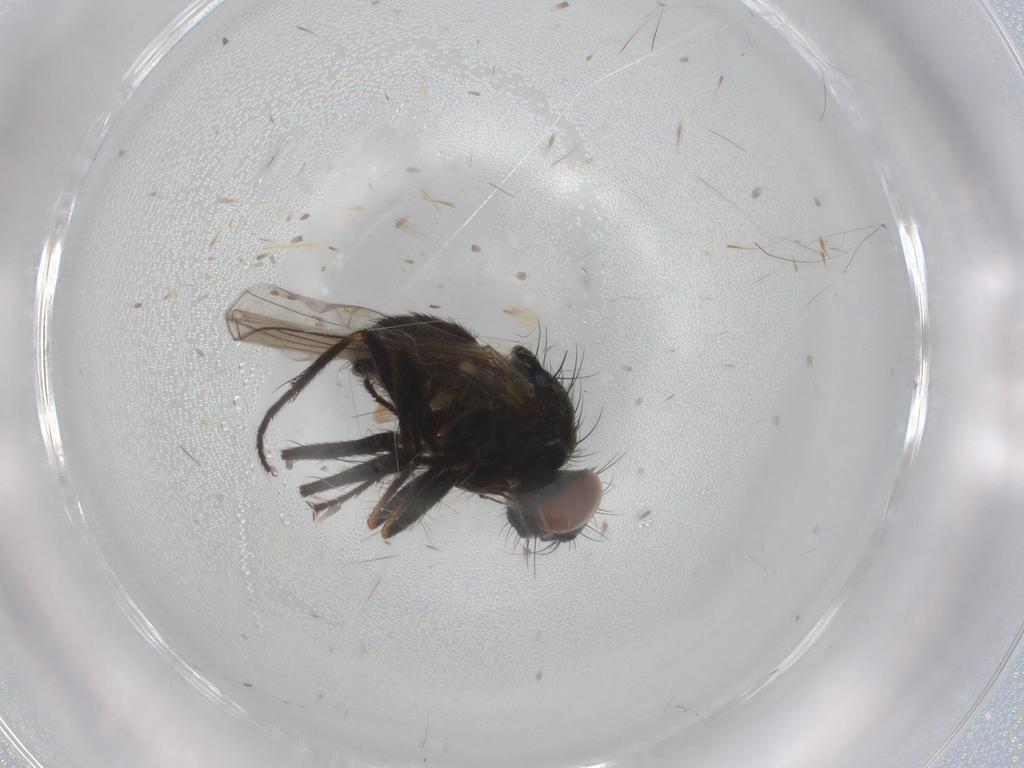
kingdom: Animalia
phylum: Arthropoda
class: Insecta
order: Diptera
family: Muscidae
